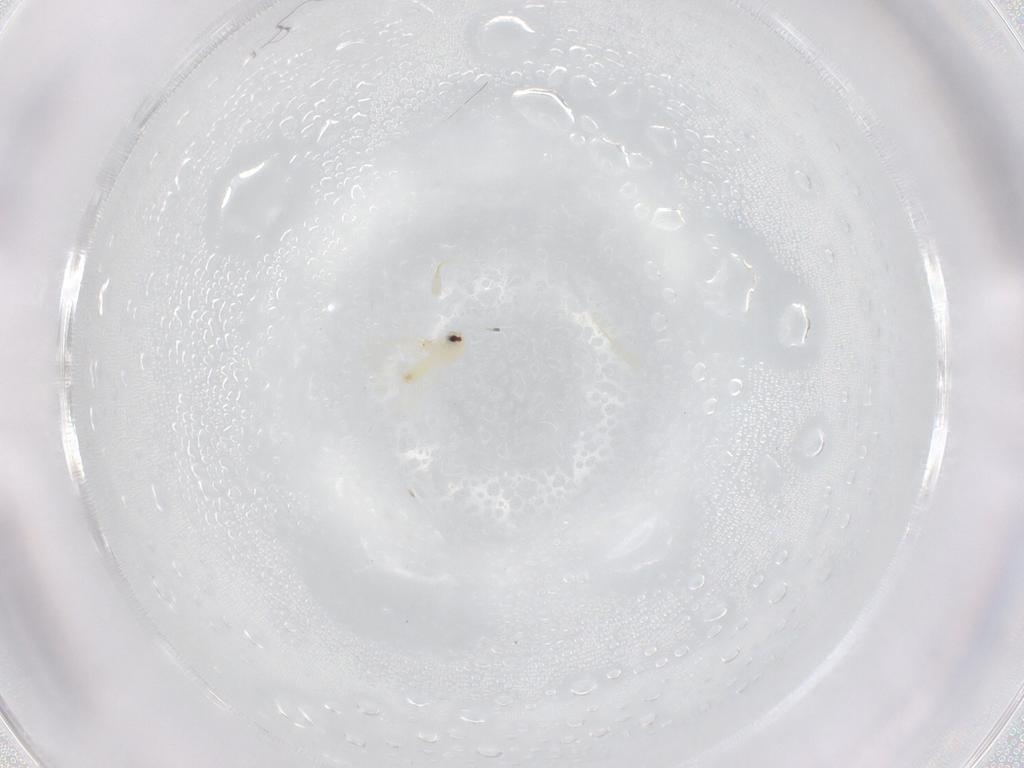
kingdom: Animalia
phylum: Arthropoda
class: Insecta
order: Hemiptera
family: Aleyrodidae
